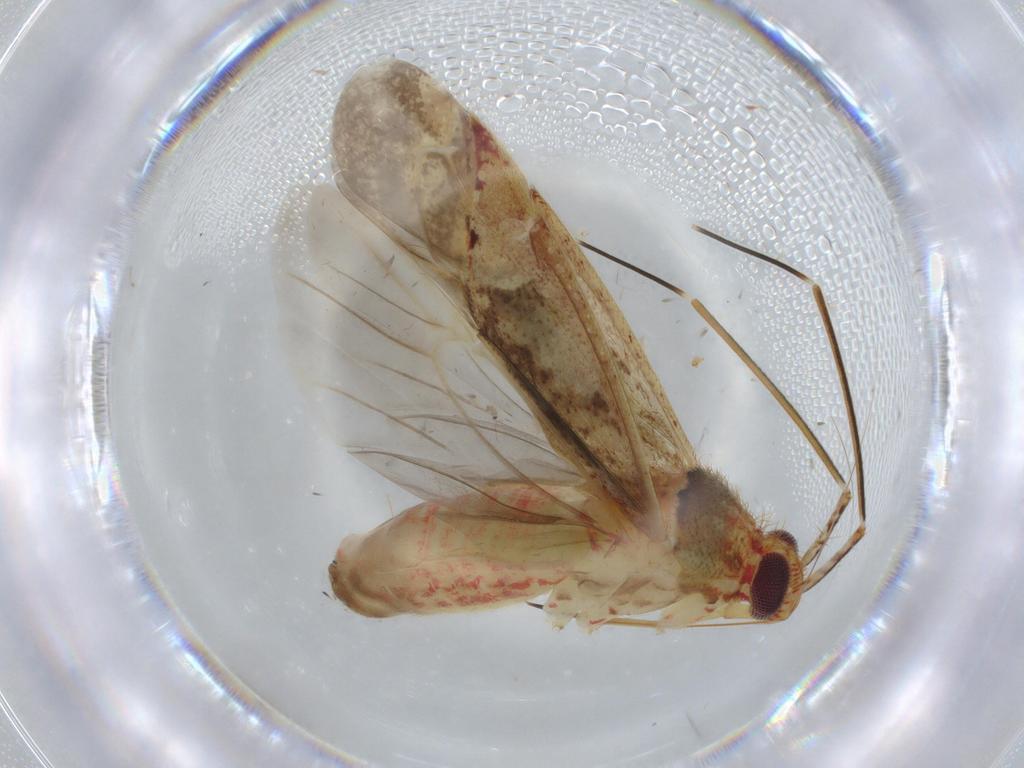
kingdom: Animalia
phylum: Arthropoda
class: Insecta
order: Hemiptera
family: Miridae
